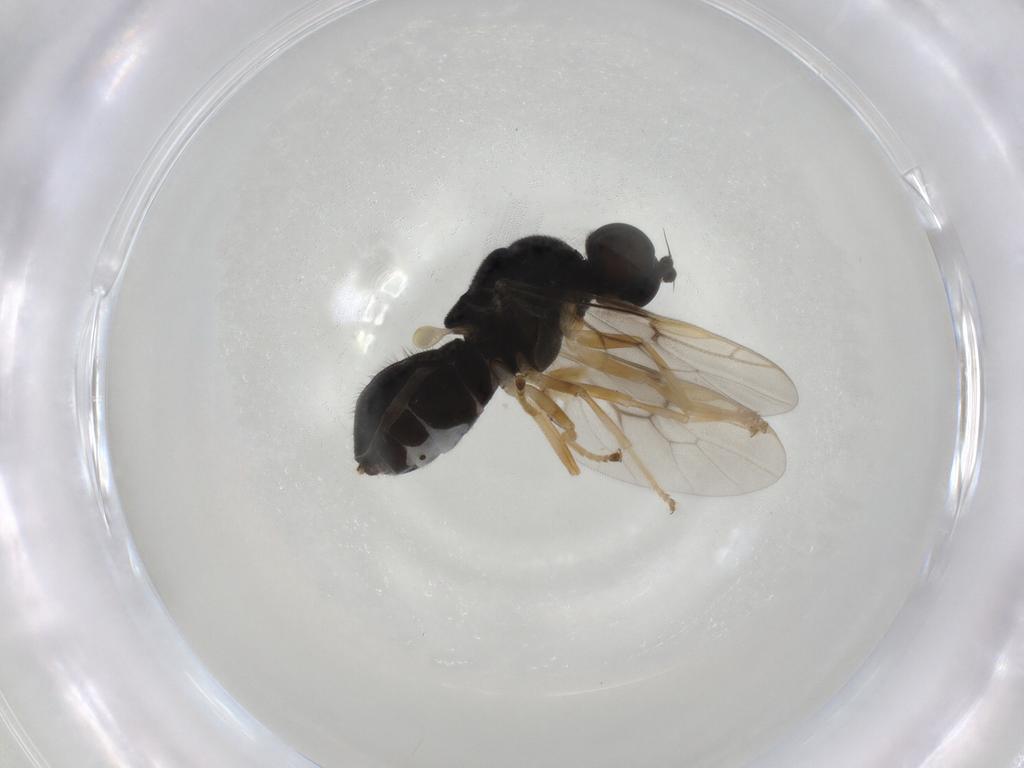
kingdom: Animalia
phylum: Arthropoda
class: Insecta
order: Diptera
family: Stratiomyidae
